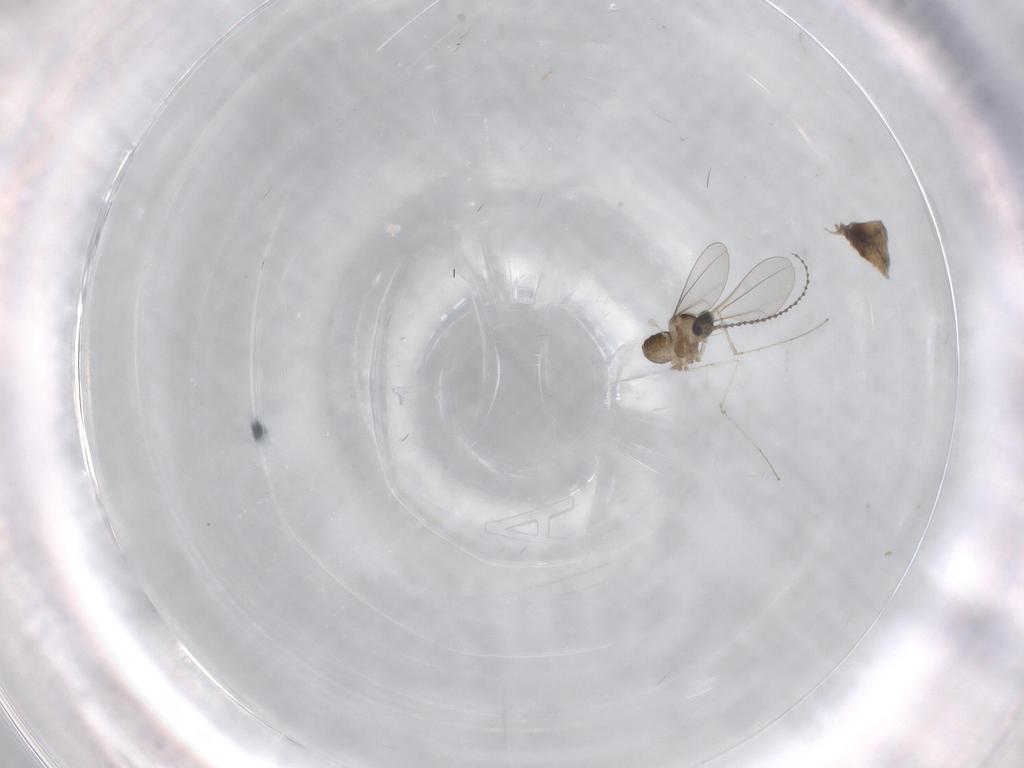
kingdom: Animalia
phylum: Arthropoda
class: Insecta
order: Diptera
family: Cecidomyiidae
